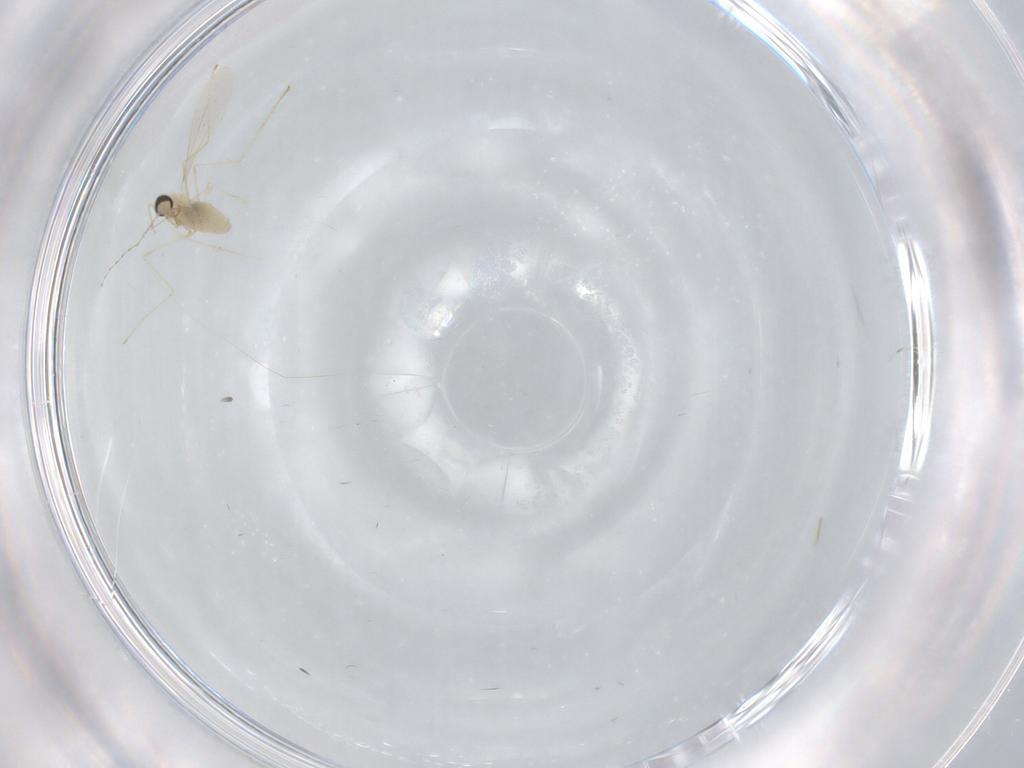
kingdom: Animalia
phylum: Arthropoda
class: Insecta
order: Diptera
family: Cecidomyiidae
